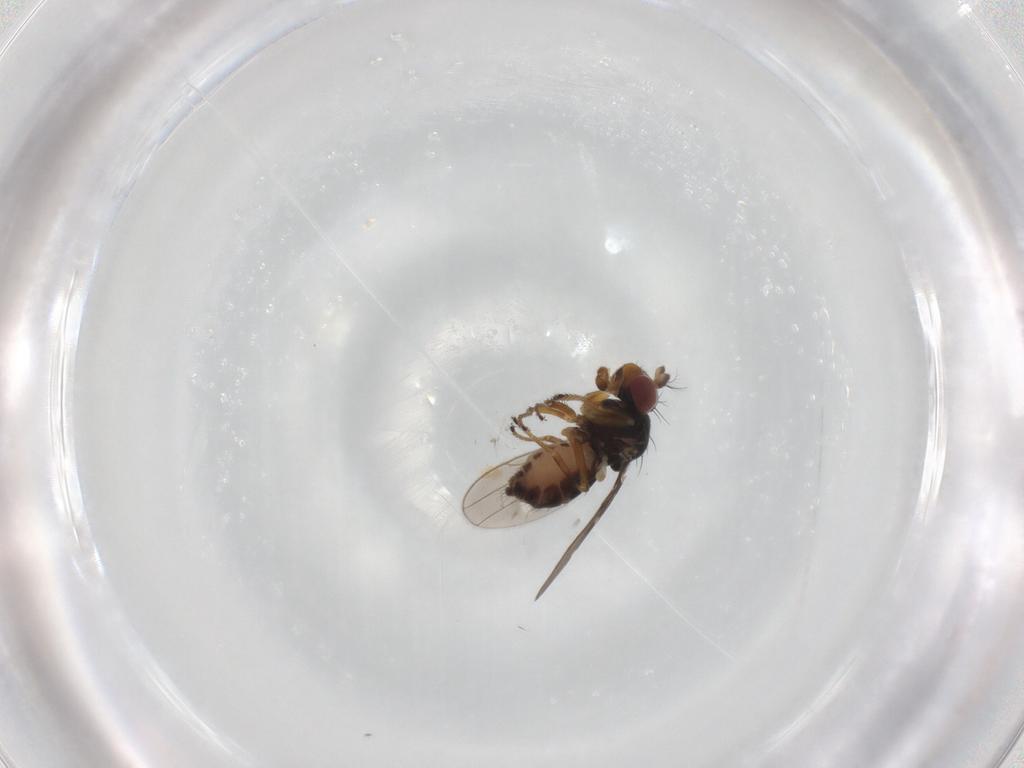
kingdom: Animalia
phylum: Arthropoda
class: Insecta
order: Diptera
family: Ephydridae
